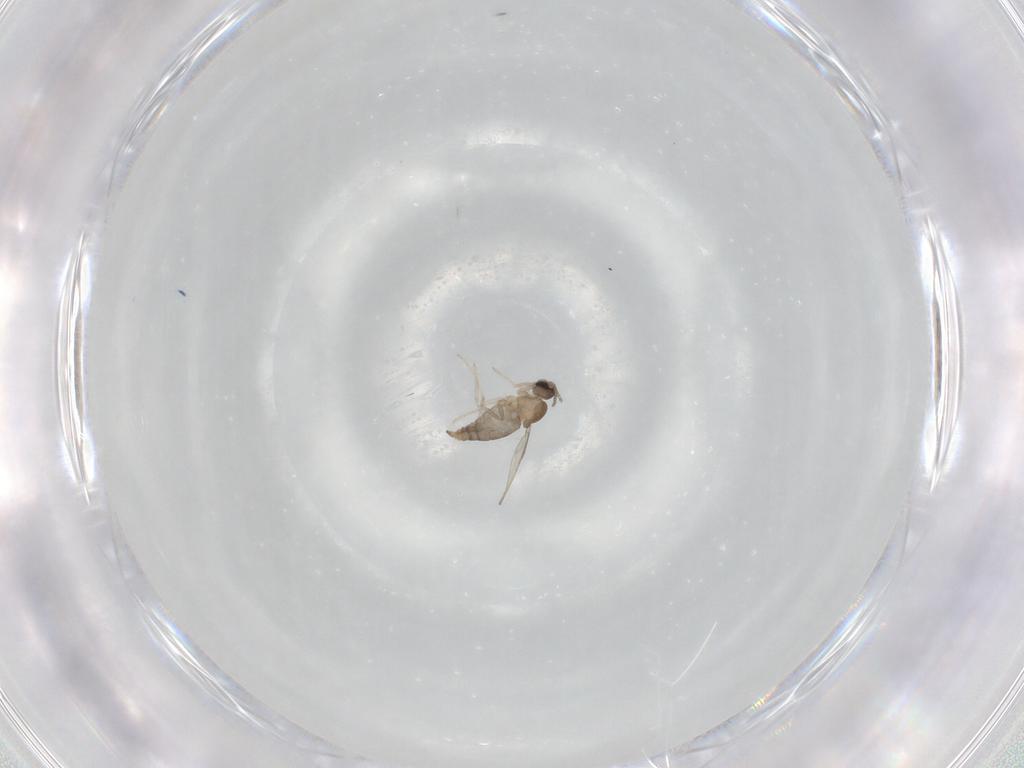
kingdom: Animalia
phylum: Arthropoda
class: Insecta
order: Diptera
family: Cecidomyiidae
